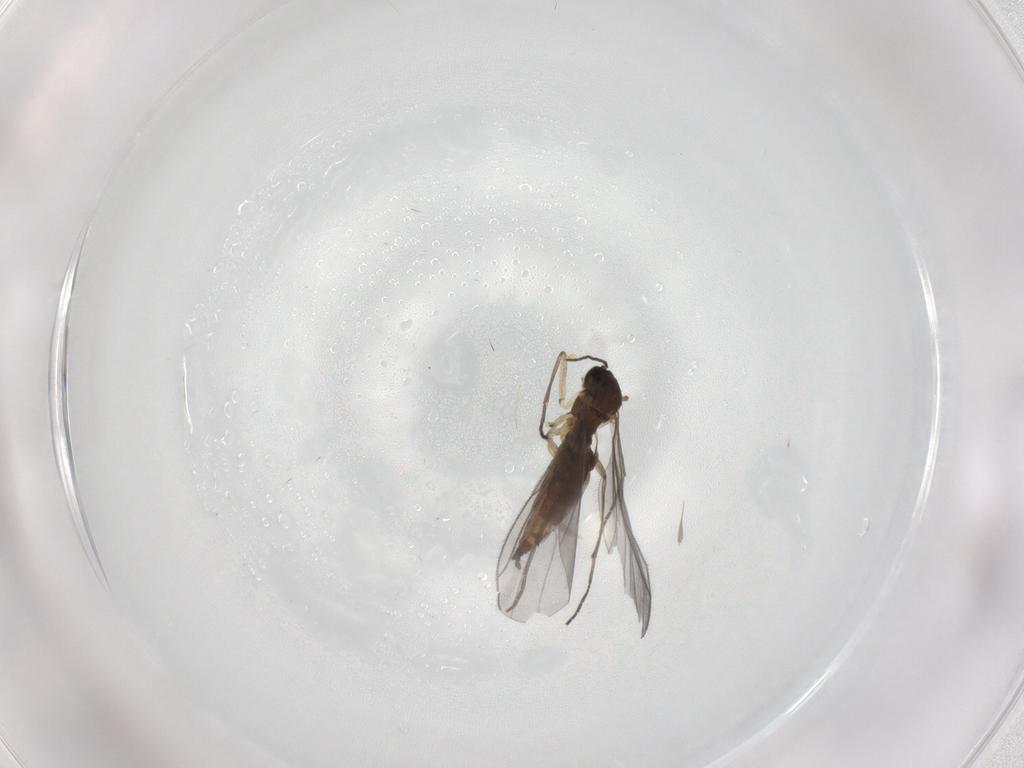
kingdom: Animalia
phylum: Arthropoda
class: Insecta
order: Diptera
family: Sciaridae
